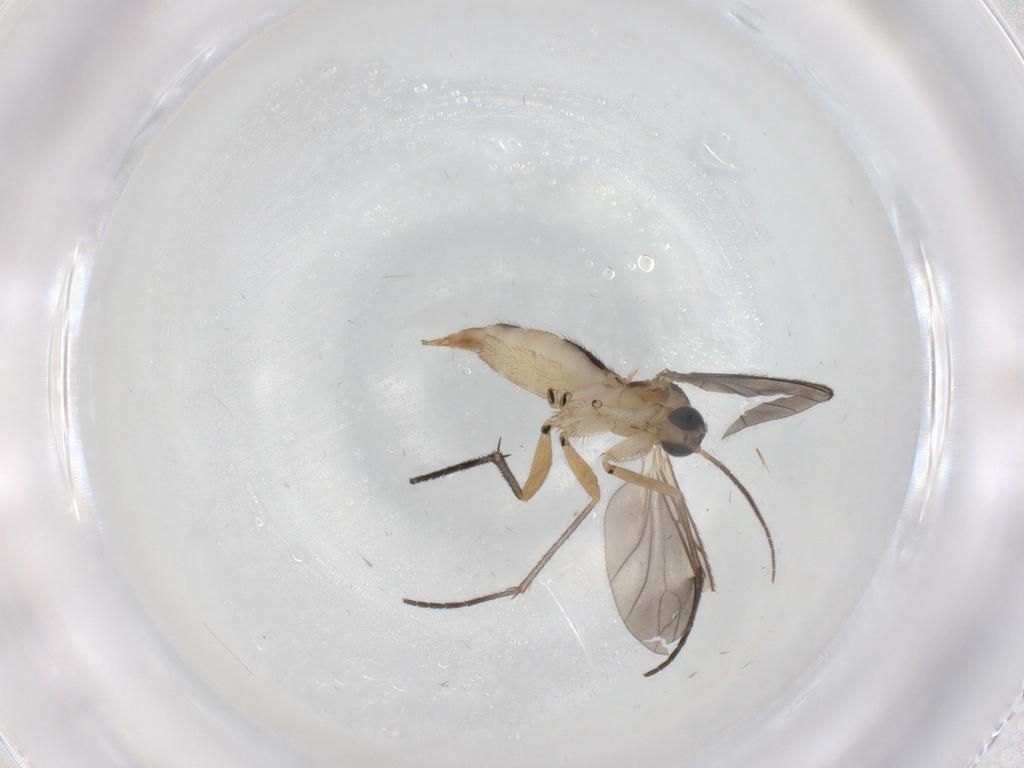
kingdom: Animalia
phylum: Arthropoda
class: Insecta
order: Diptera
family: Sciaridae
